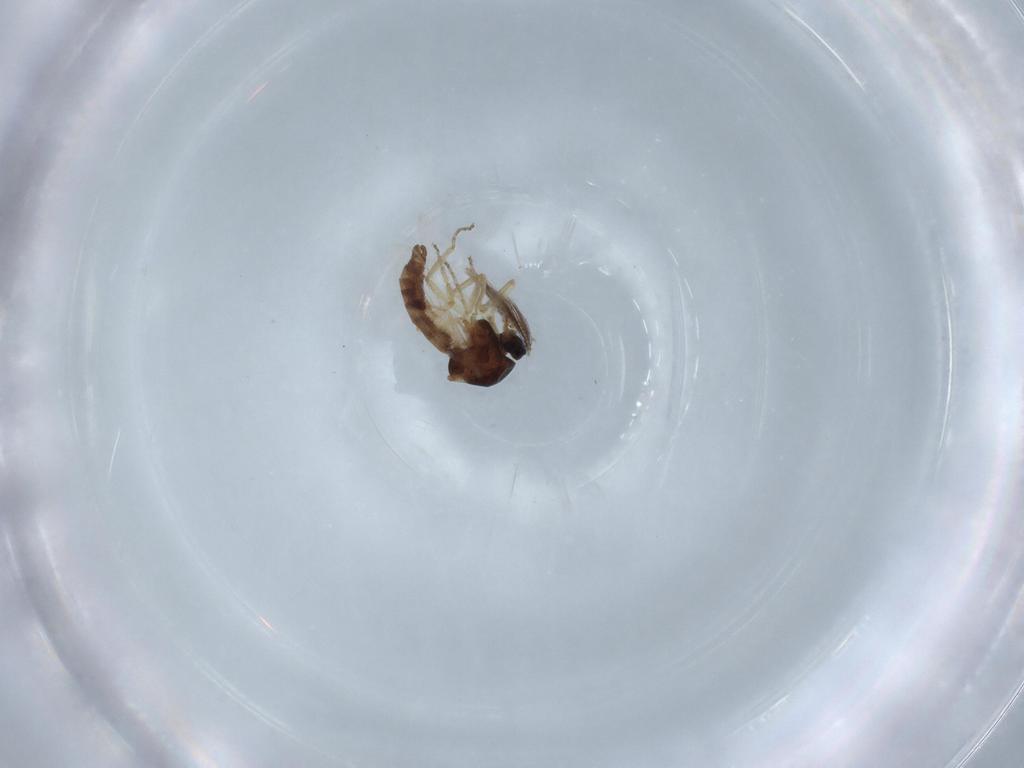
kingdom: Animalia
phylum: Arthropoda
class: Insecta
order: Diptera
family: Ceratopogonidae
